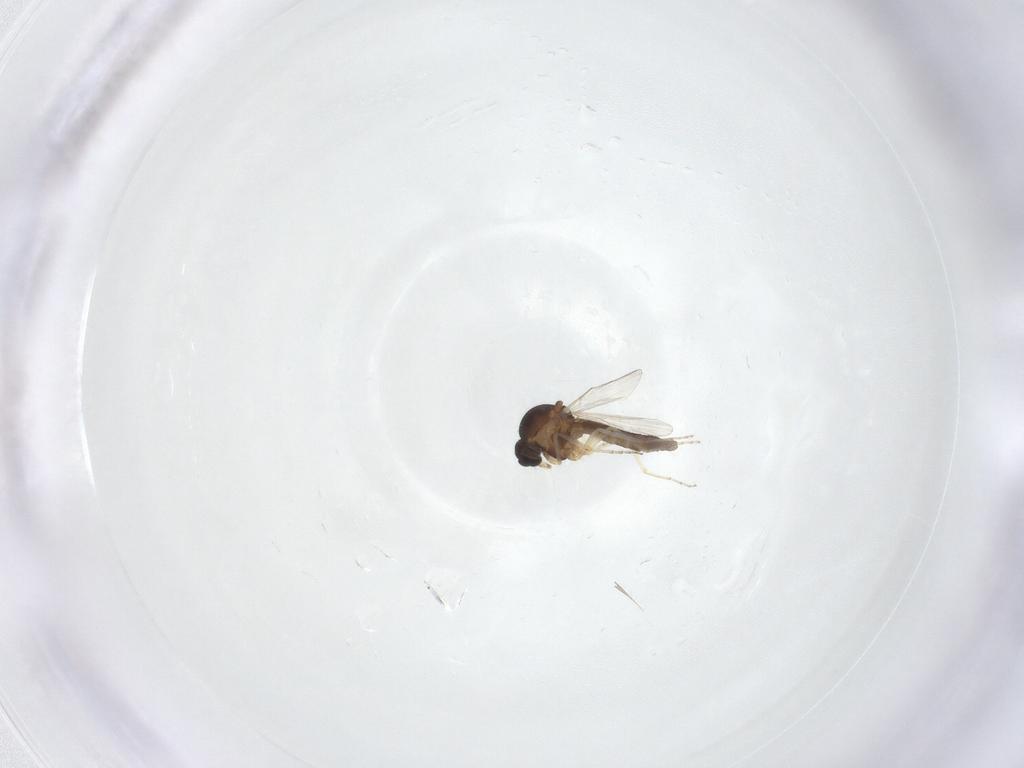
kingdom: Animalia
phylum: Arthropoda
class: Insecta
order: Diptera
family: Ceratopogonidae
